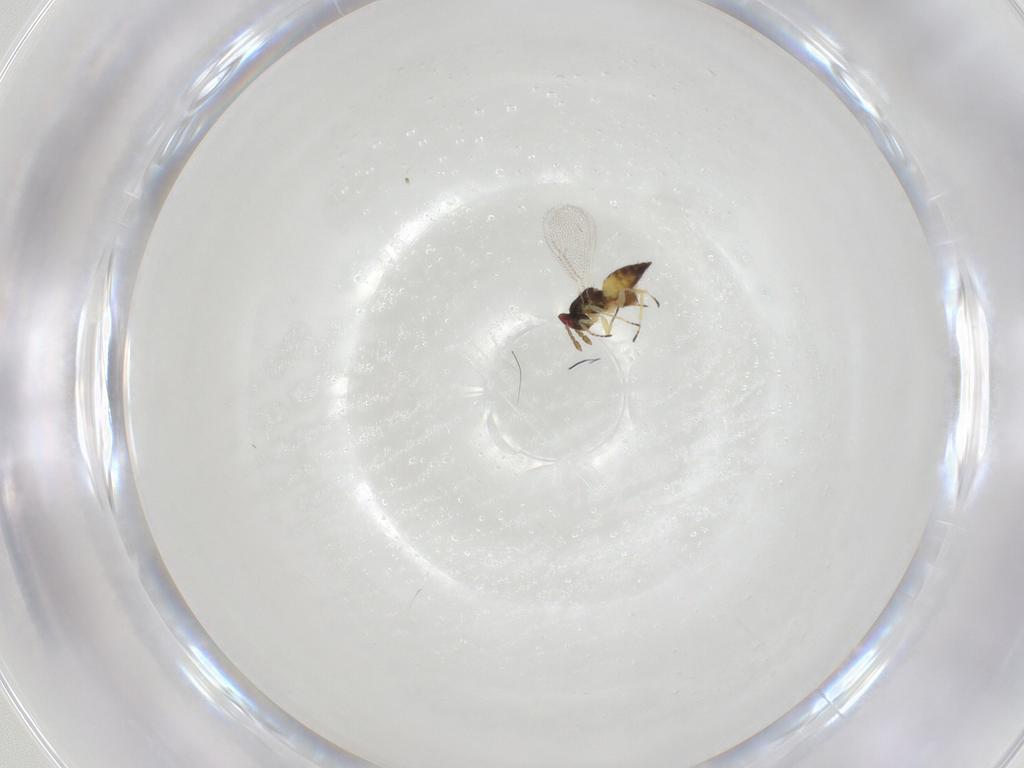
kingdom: Animalia
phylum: Arthropoda
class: Insecta
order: Hymenoptera
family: Eulophidae
